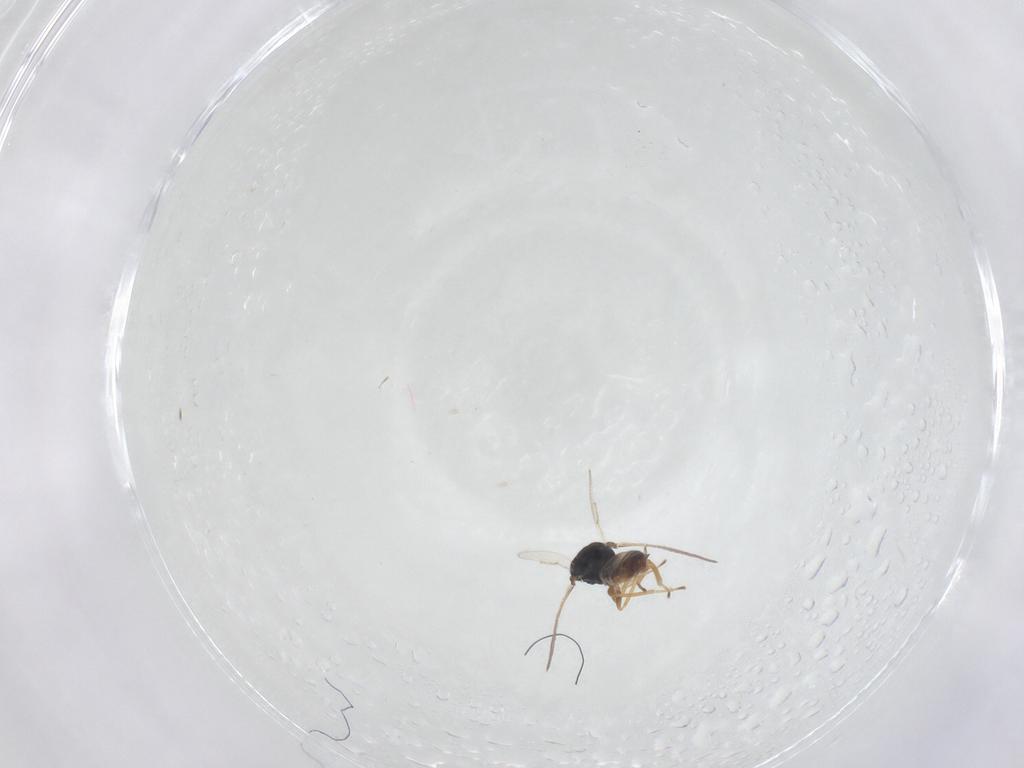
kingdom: Animalia
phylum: Arthropoda
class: Insecta
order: Hymenoptera
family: Pteromalidae
